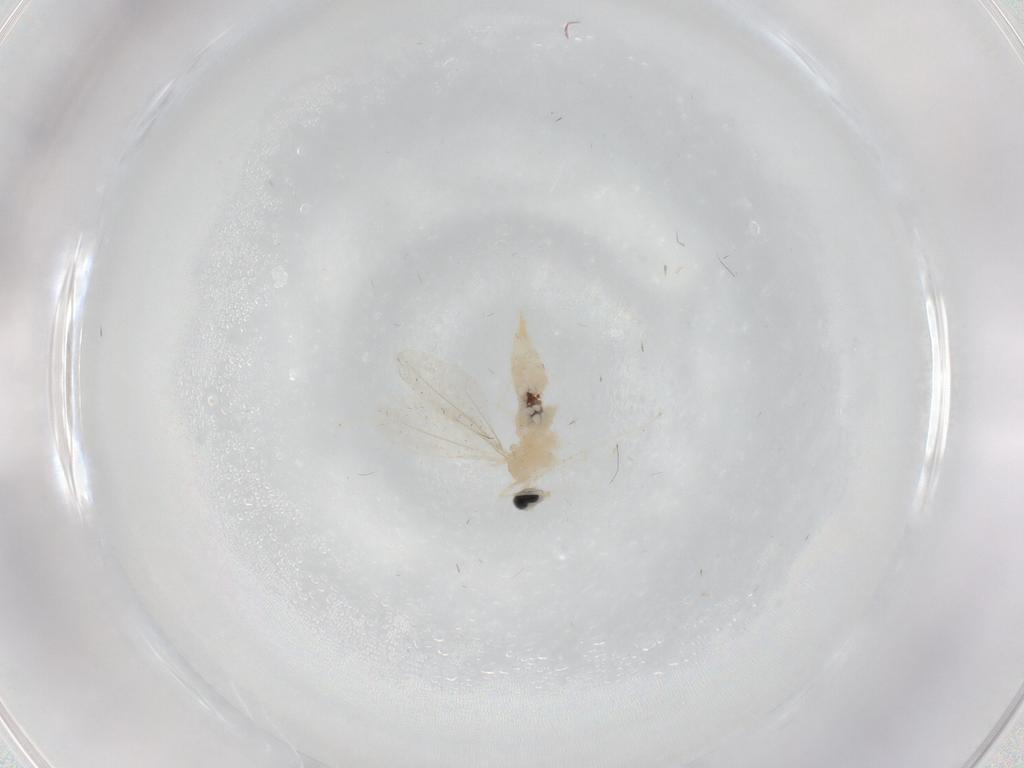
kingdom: Animalia
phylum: Arthropoda
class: Insecta
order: Diptera
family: Cecidomyiidae
